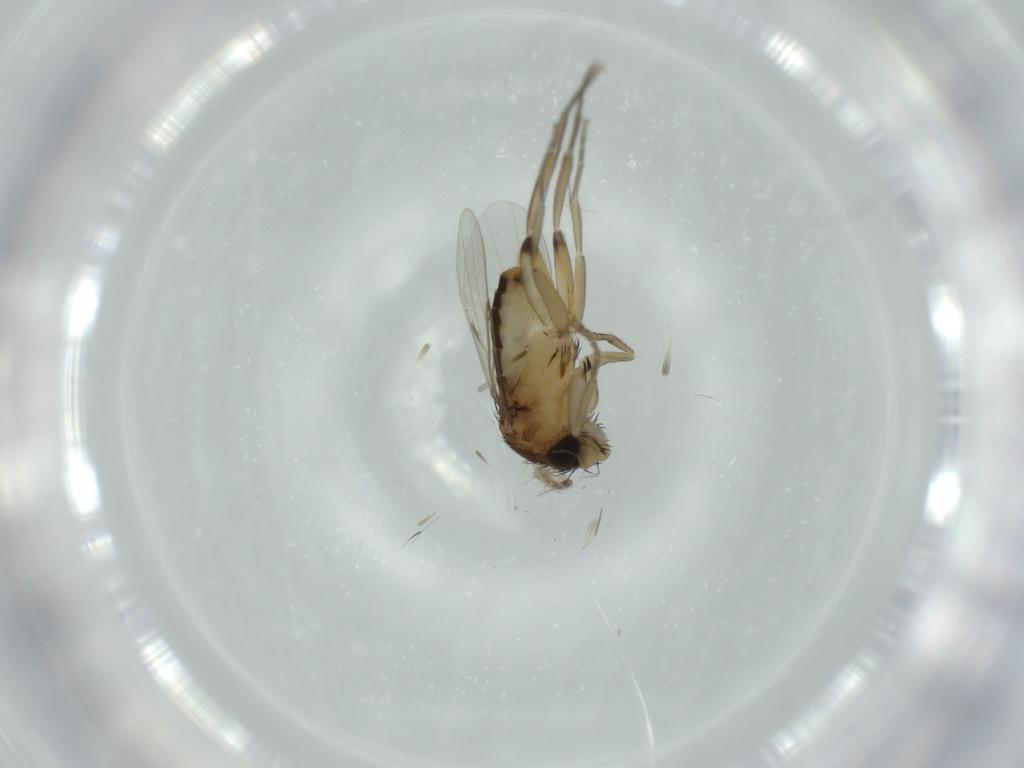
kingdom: Animalia
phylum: Arthropoda
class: Insecta
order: Diptera
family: Phoridae
